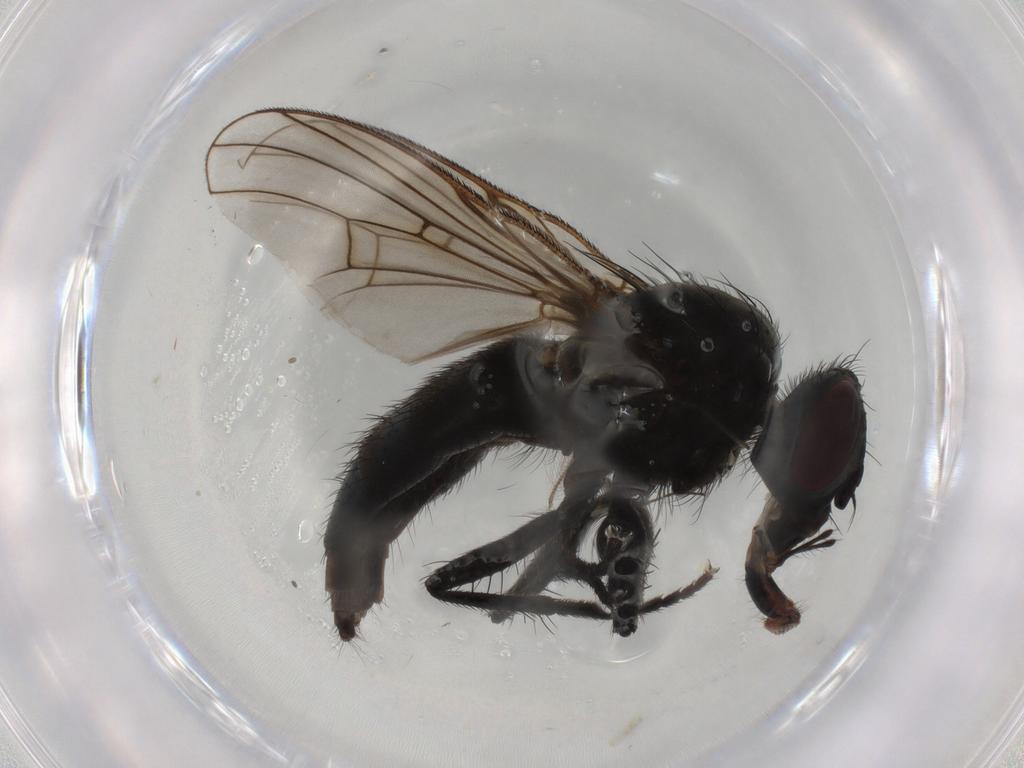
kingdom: Animalia
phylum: Arthropoda
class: Insecta
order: Diptera
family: Muscidae
